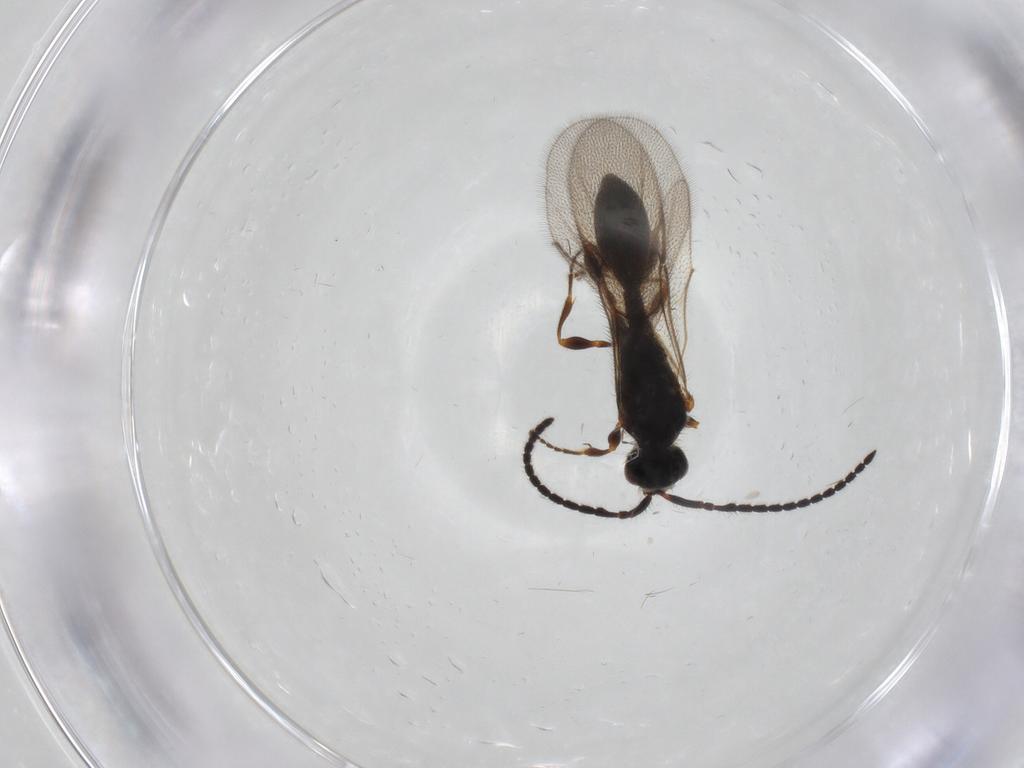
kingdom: Animalia
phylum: Arthropoda
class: Insecta
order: Hymenoptera
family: Diapriidae
